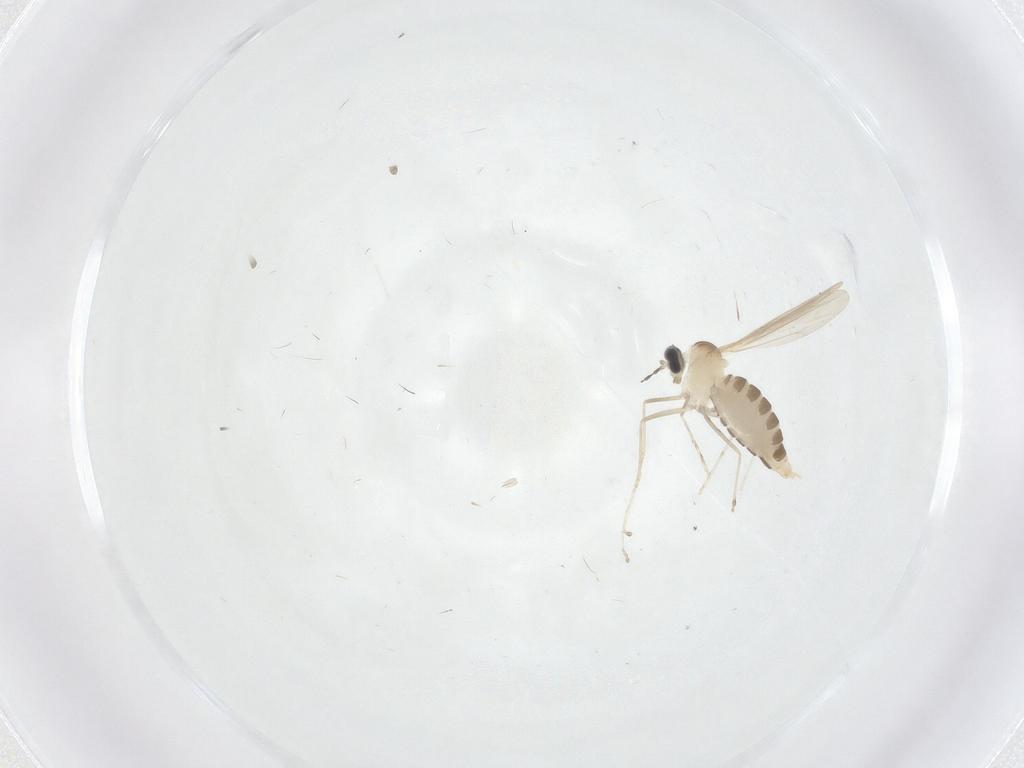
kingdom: Animalia
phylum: Arthropoda
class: Insecta
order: Diptera
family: Cecidomyiidae
